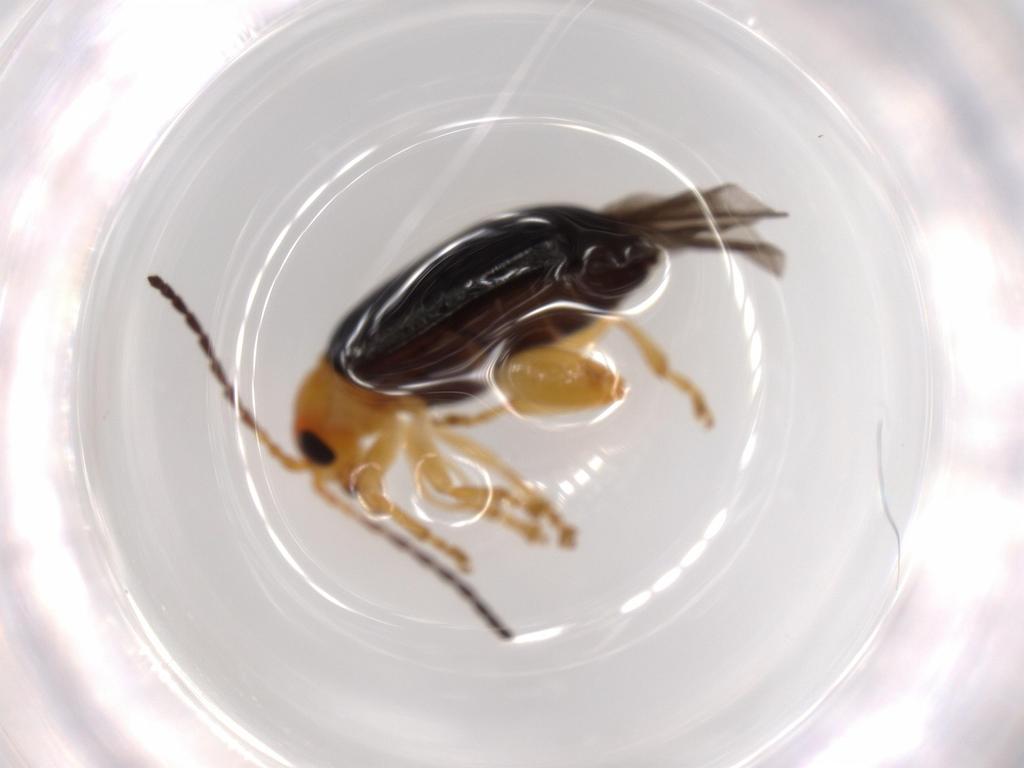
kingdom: Animalia
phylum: Arthropoda
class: Insecta
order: Coleoptera
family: Chrysomelidae
